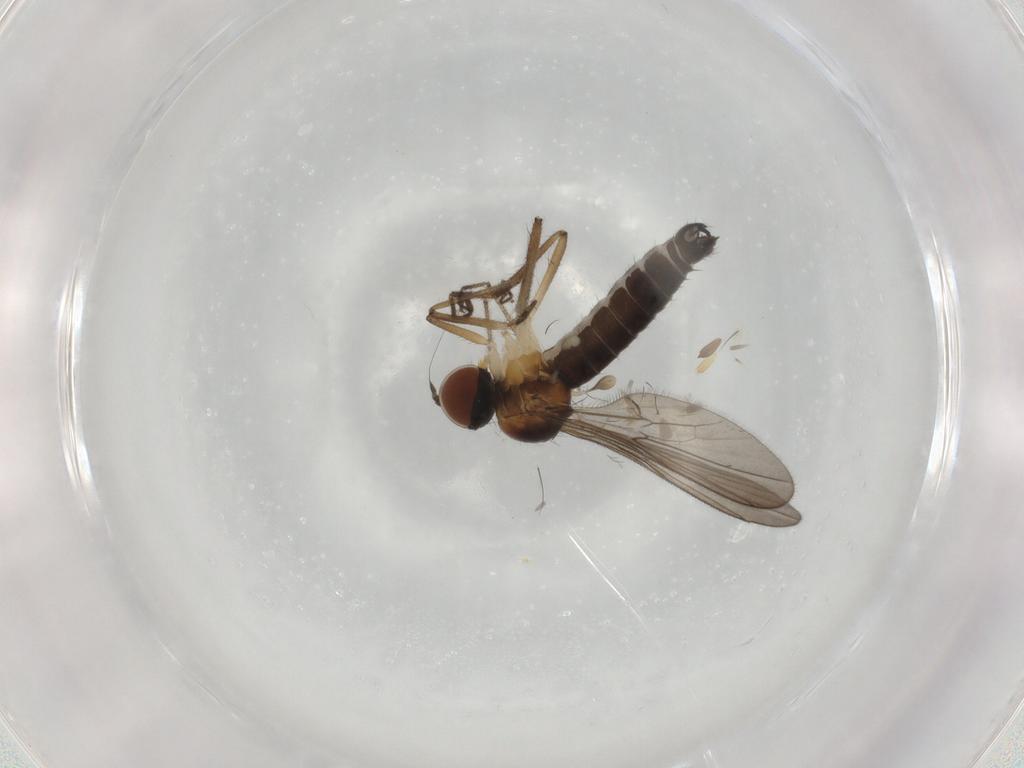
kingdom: Animalia
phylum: Arthropoda
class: Insecta
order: Diptera
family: Hybotidae
